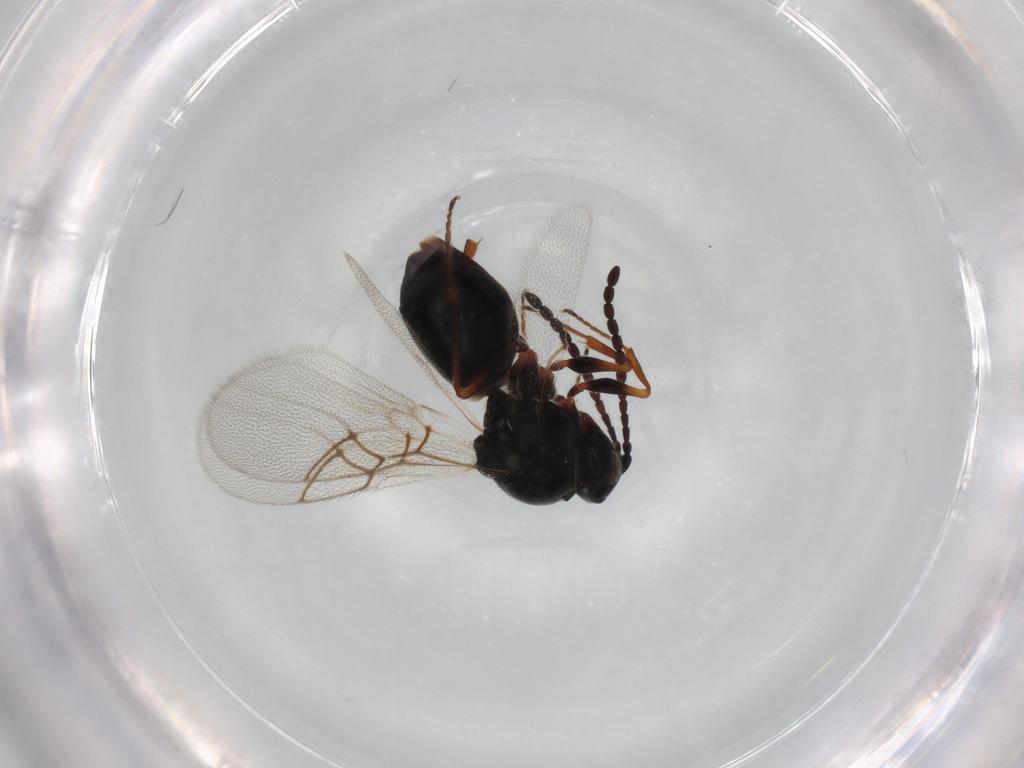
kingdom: Animalia
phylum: Arthropoda
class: Insecta
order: Hymenoptera
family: Figitidae
